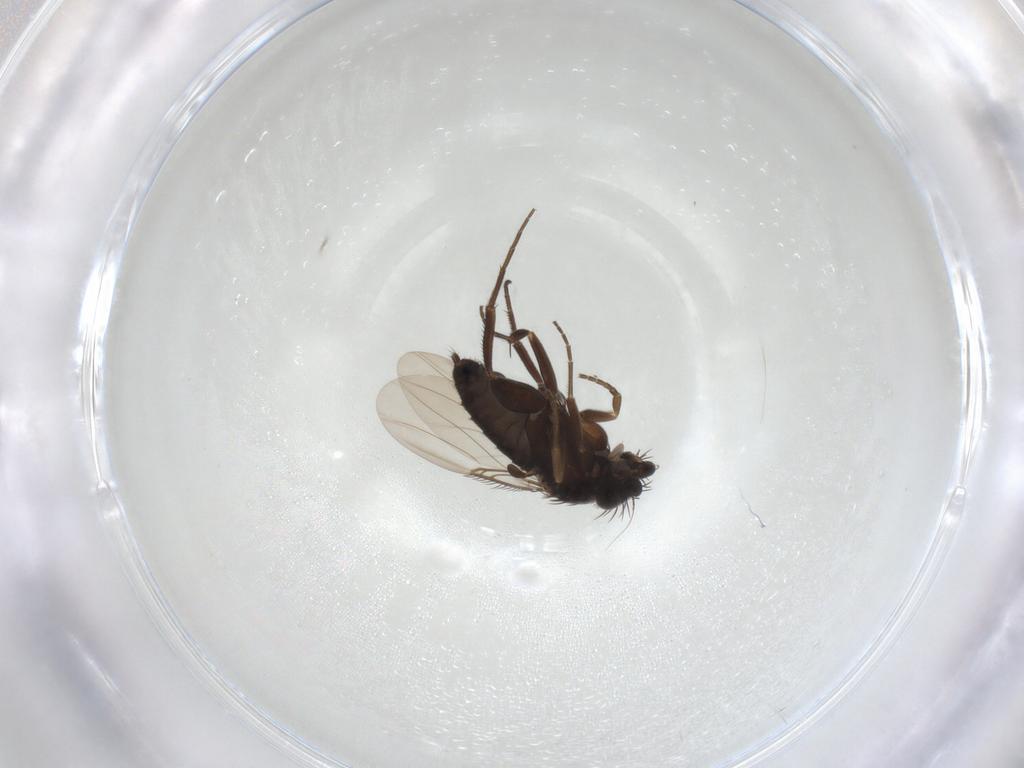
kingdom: Animalia
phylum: Arthropoda
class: Insecta
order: Diptera
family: Phoridae
